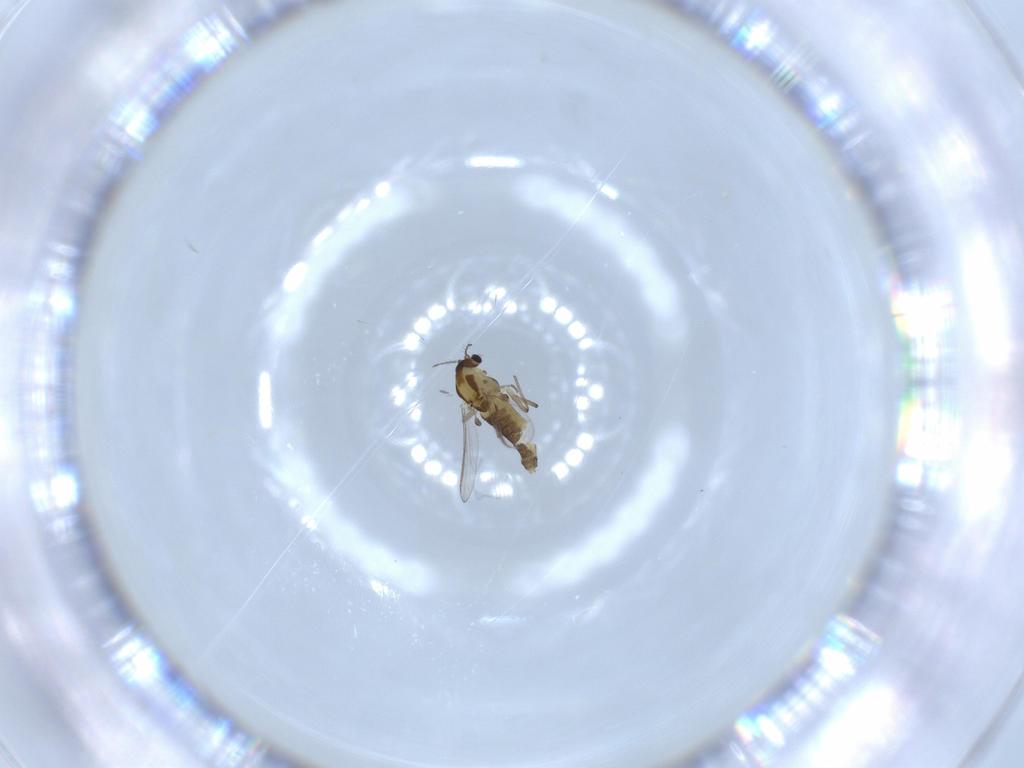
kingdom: Animalia
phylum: Arthropoda
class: Insecta
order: Diptera
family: Chironomidae
